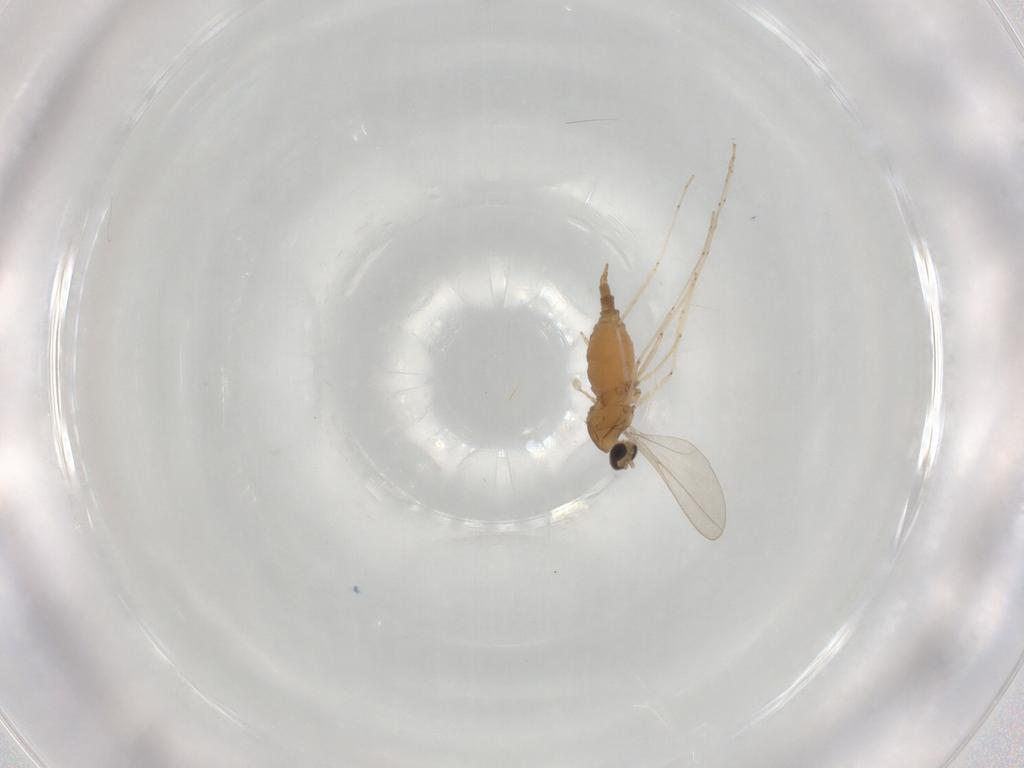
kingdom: Animalia
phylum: Arthropoda
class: Insecta
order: Diptera
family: Cecidomyiidae
